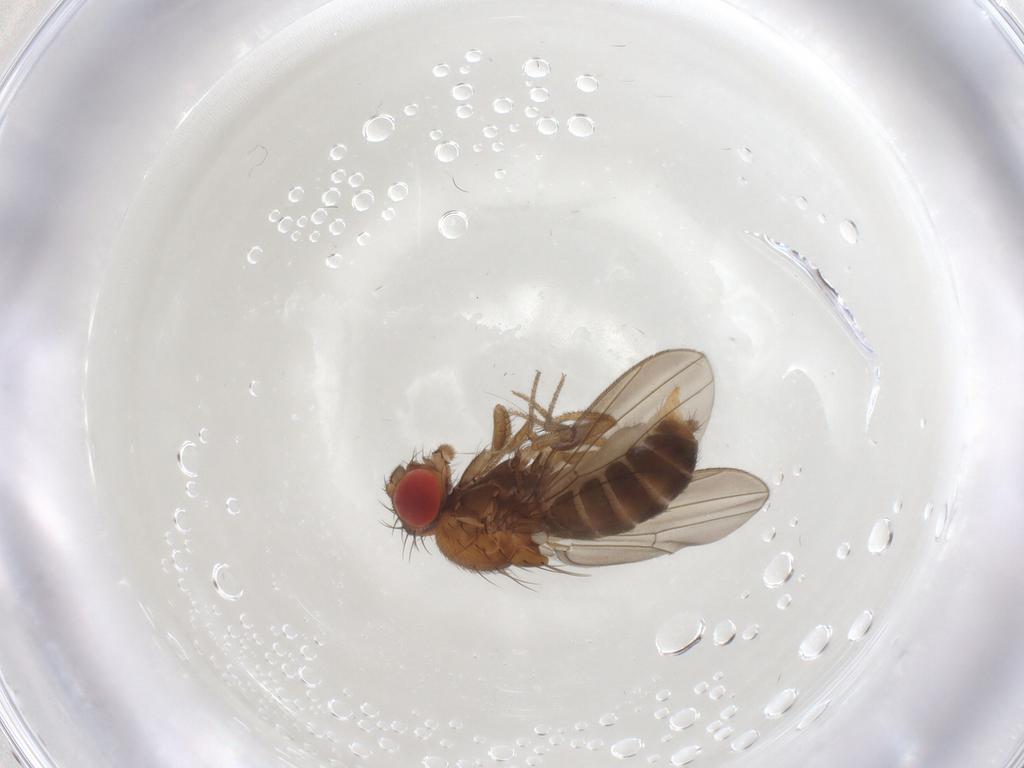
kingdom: Animalia
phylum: Arthropoda
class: Insecta
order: Diptera
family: Drosophilidae
